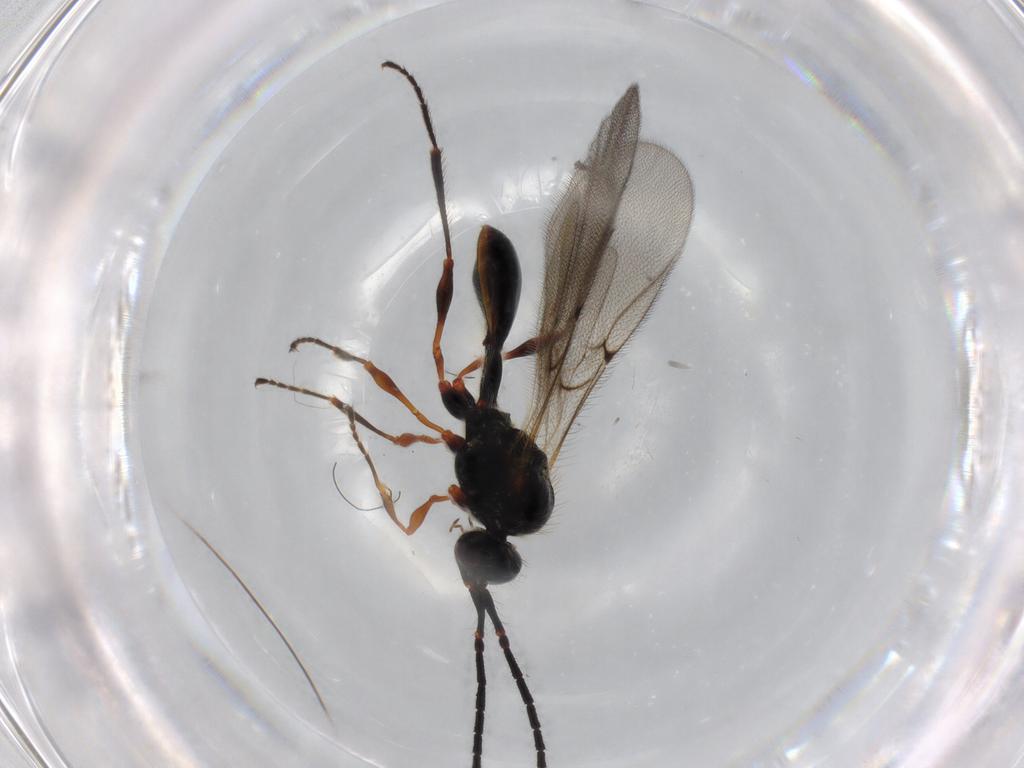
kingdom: Animalia
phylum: Arthropoda
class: Insecta
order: Hymenoptera
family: Diapriidae
